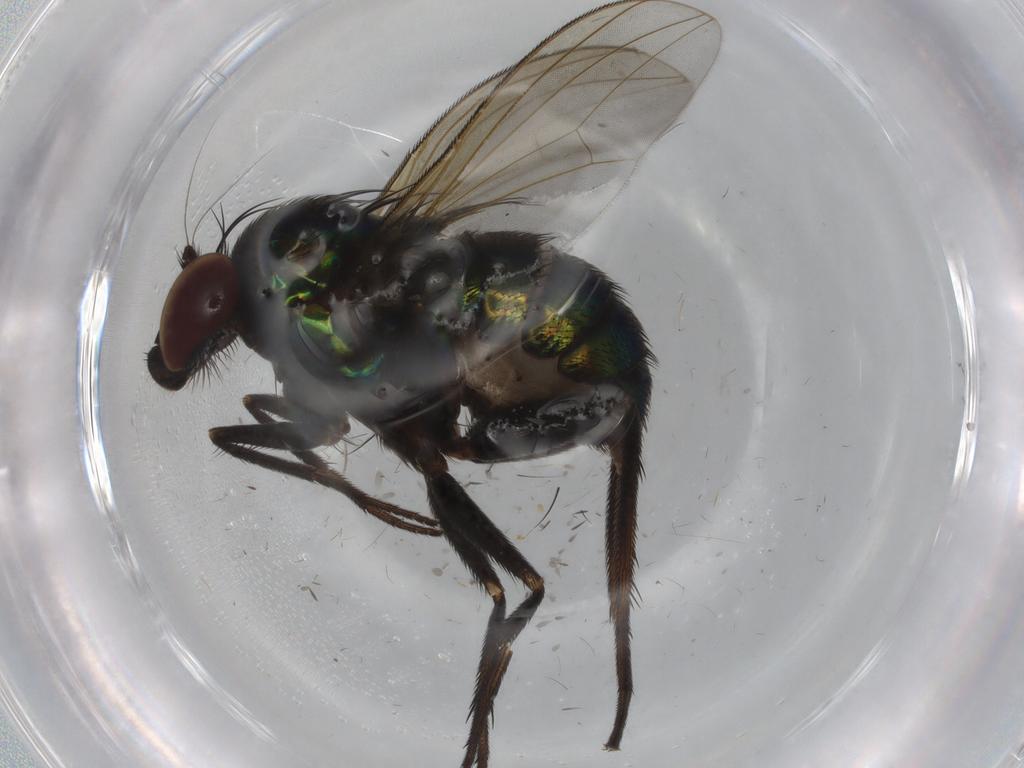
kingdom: Animalia
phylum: Arthropoda
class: Insecta
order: Diptera
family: Dolichopodidae
